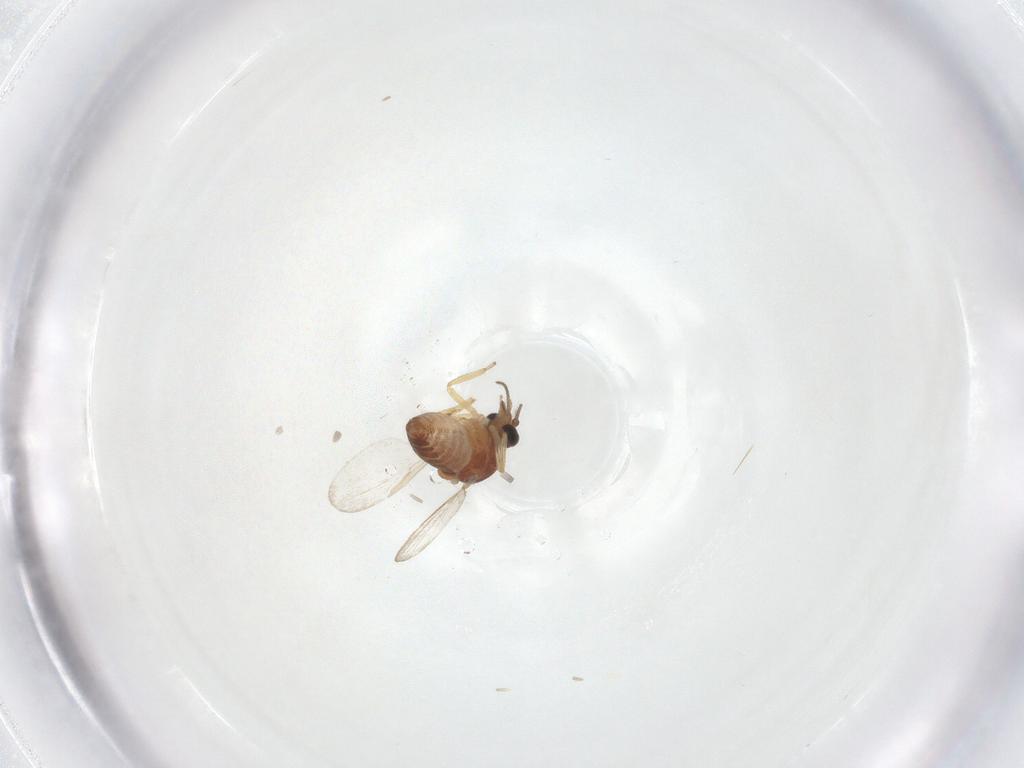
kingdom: Animalia
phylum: Arthropoda
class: Insecta
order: Diptera
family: Ceratopogonidae
